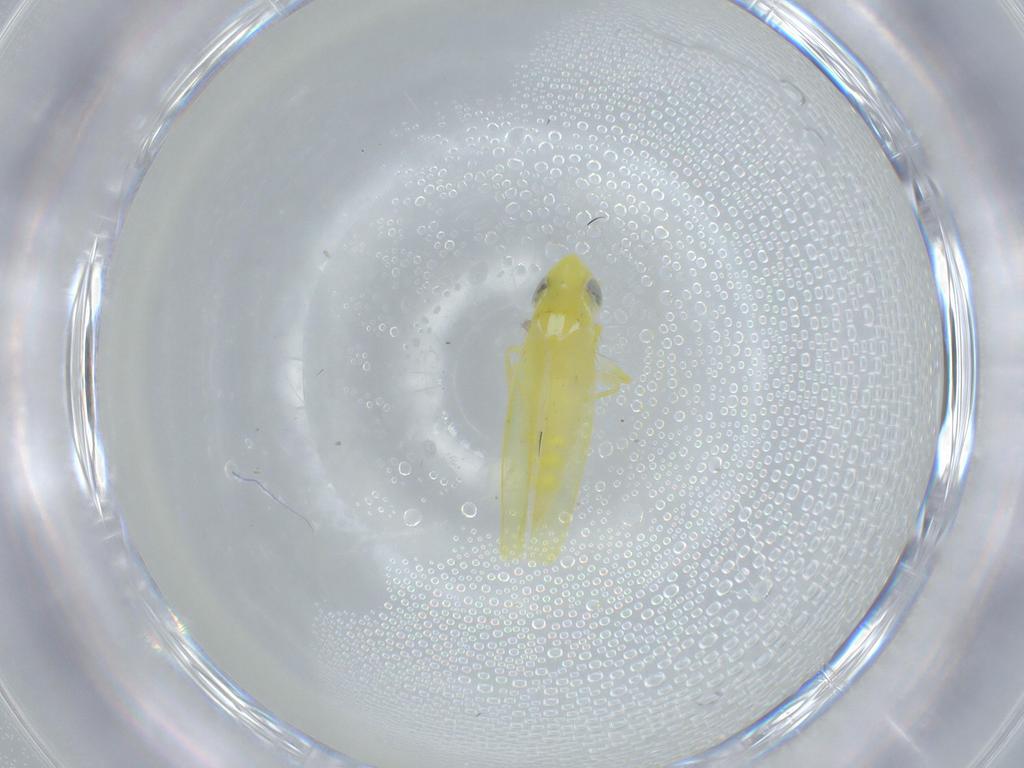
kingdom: Animalia
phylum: Arthropoda
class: Insecta
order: Hemiptera
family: Cicadellidae
